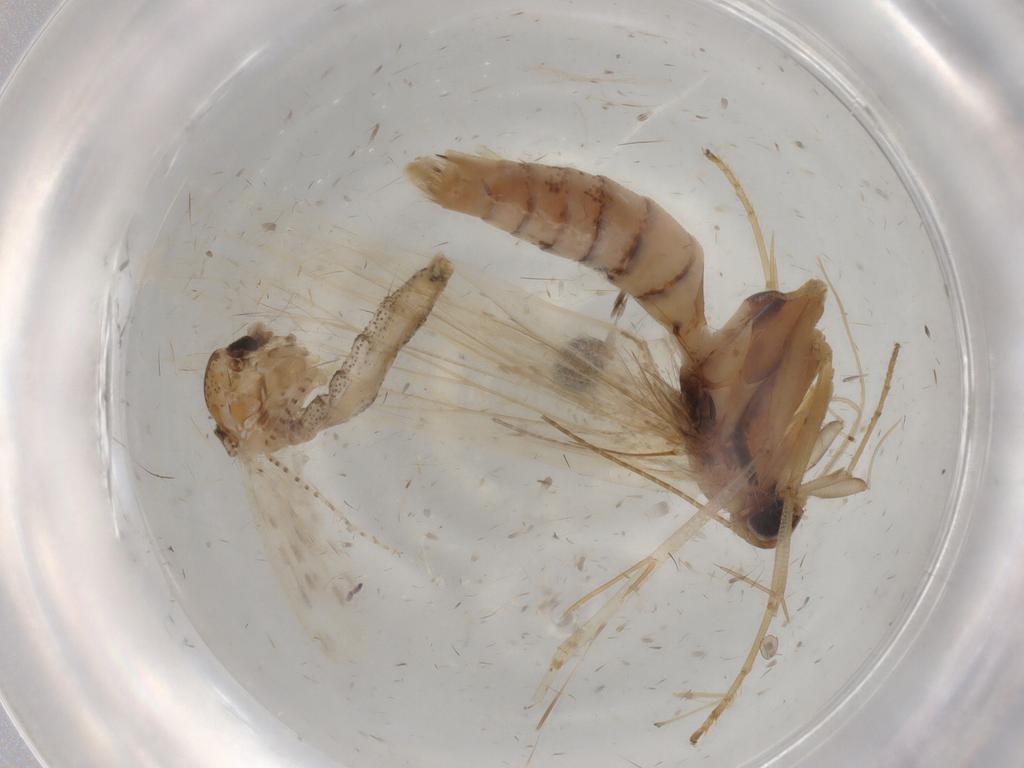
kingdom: Animalia
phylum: Arthropoda
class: Insecta
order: Lepidoptera
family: Gelechiidae
